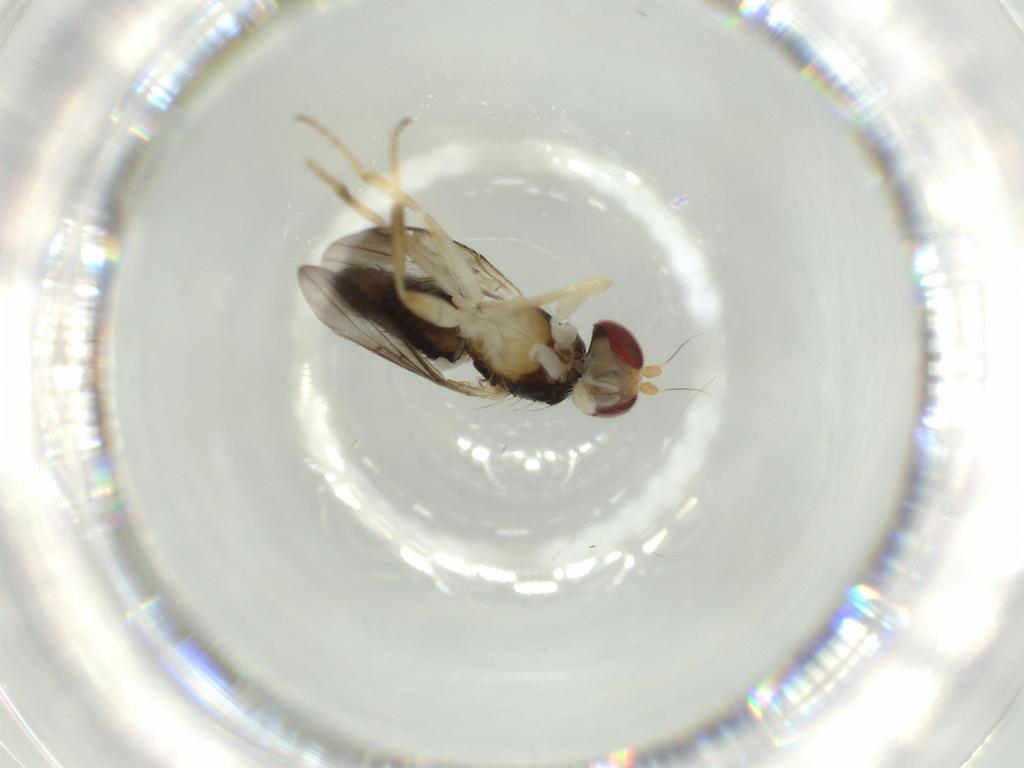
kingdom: Animalia
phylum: Arthropoda
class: Insecta
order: Diptera
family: Clusiidae
